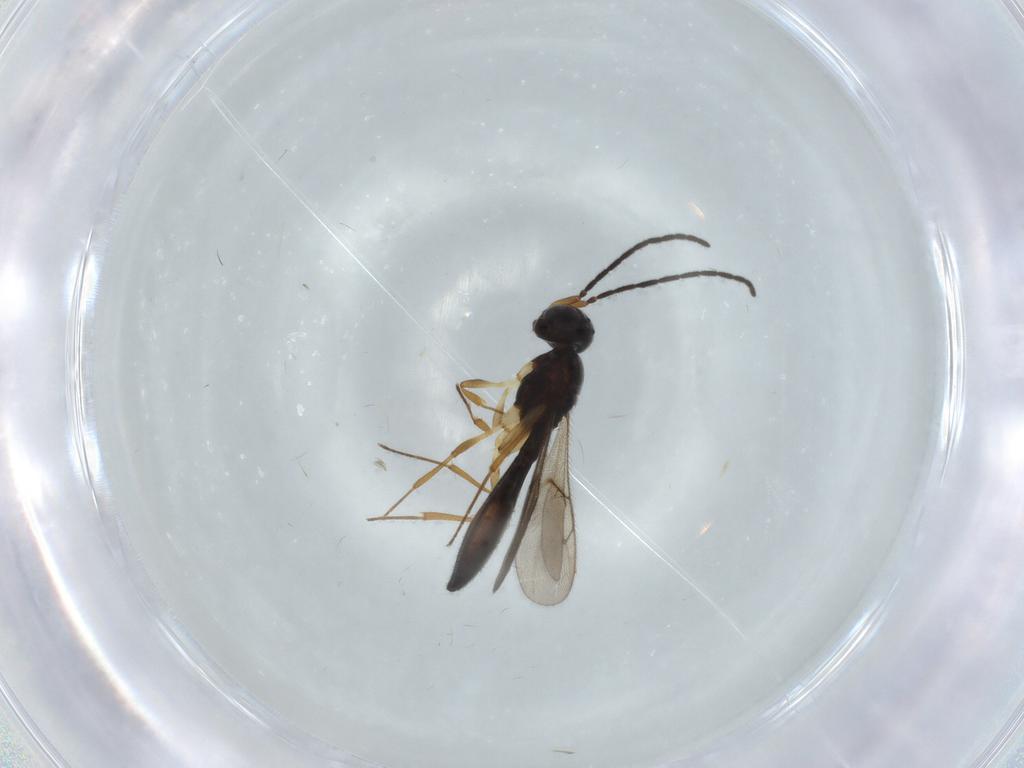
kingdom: Animalia
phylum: Arthropoda
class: Insecta
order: Hymenoptera
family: Scelionidae
